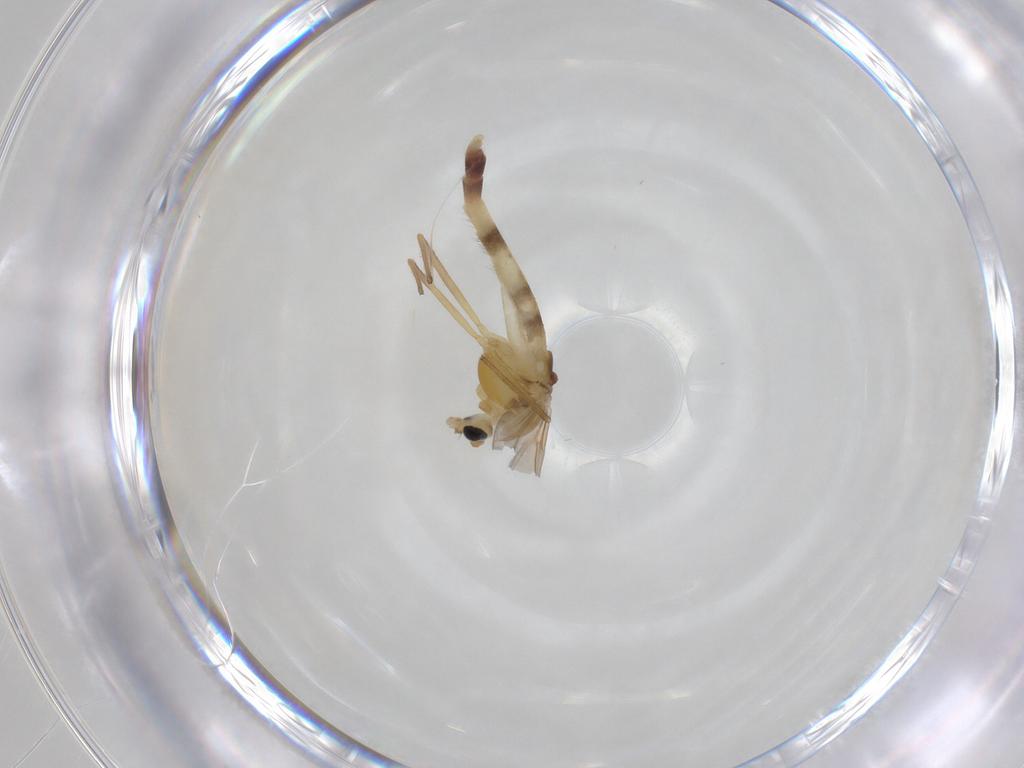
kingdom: Animalia
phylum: Arthropoda
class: Insecta
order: Diptera
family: Chironomidae
